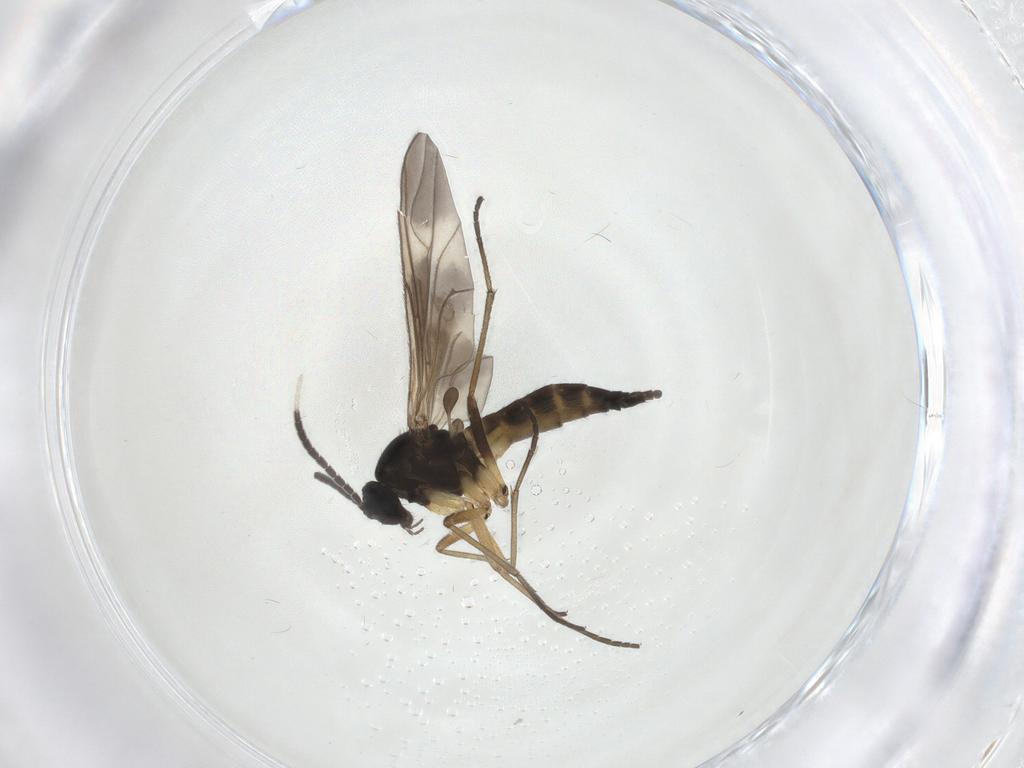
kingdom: Animalia
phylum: Arthropoda
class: Insecta
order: Diptera
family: Sciaridae
